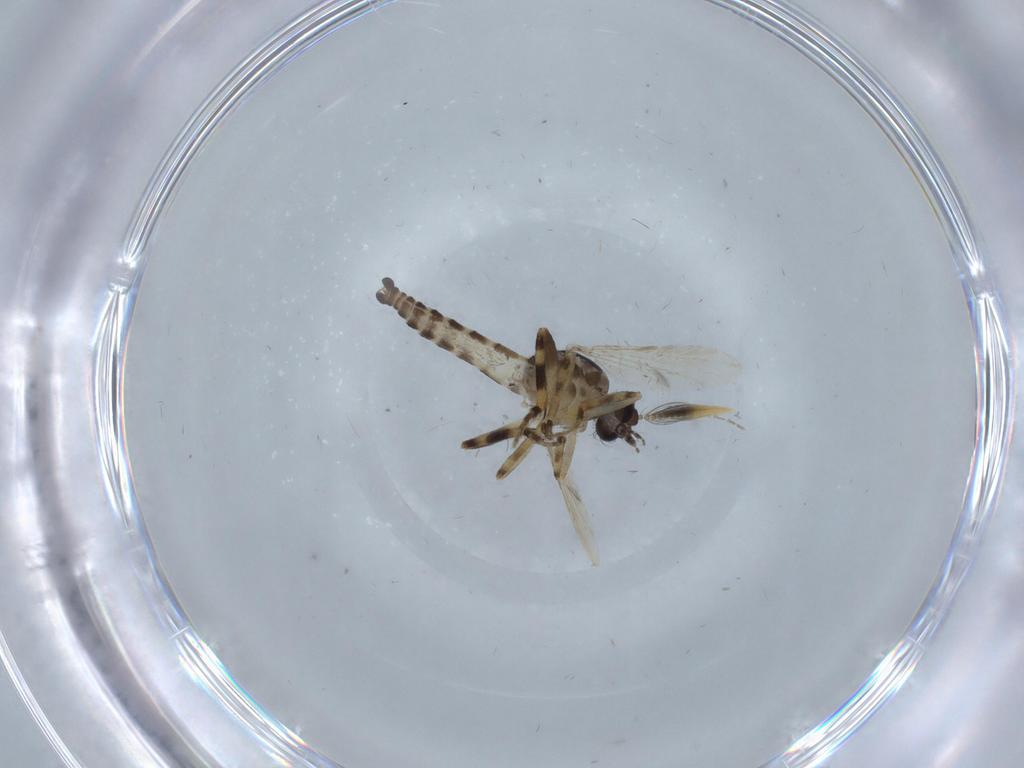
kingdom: Animalia
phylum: Arthropoda
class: Insecta
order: Diptera
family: Ceratopogonidae
